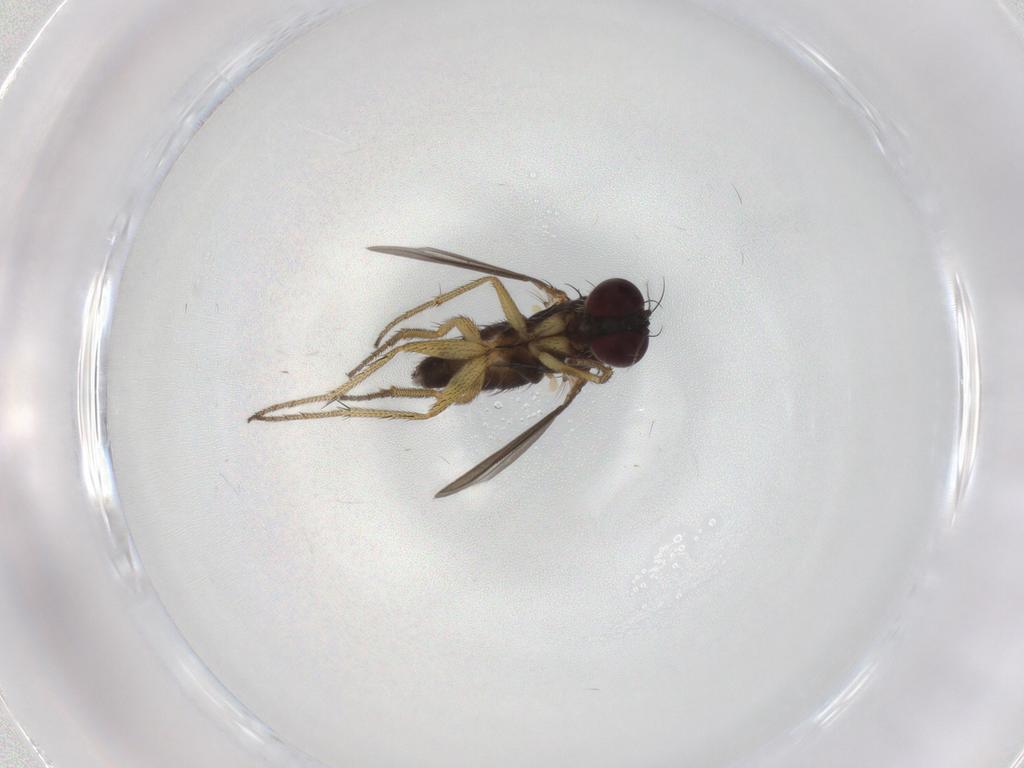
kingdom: Animalia
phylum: Arthropoda
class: Insecta
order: Diptera
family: Dolichopodidae
